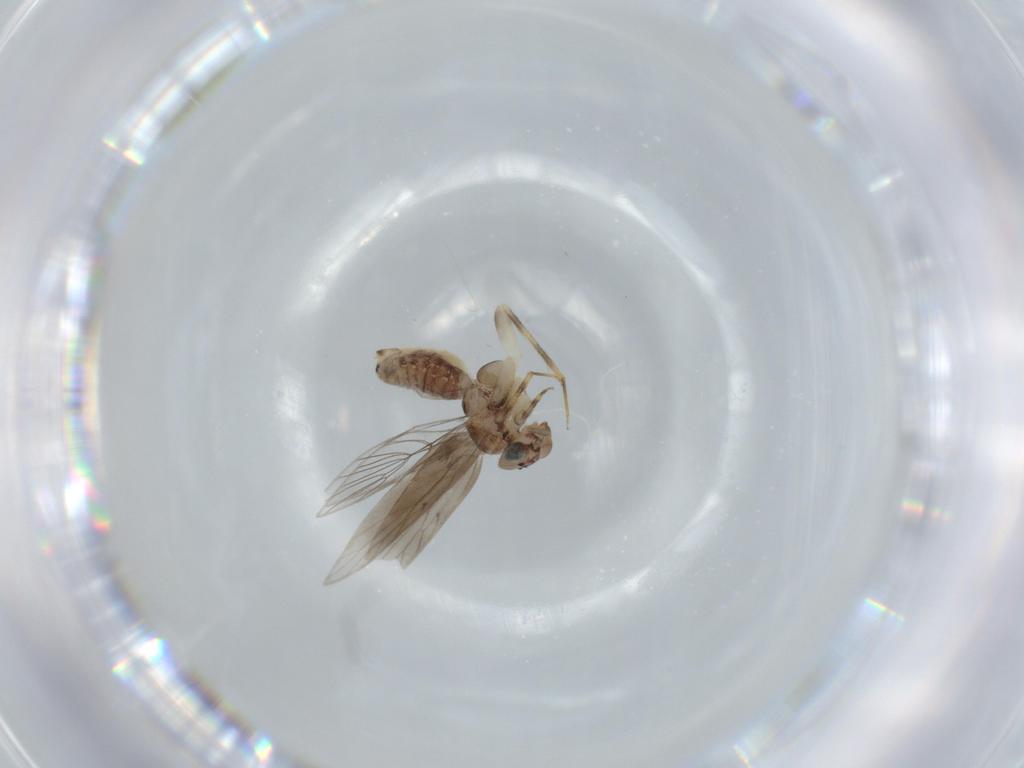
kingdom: Animalia
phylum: Arthropoda
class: Insecta
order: Psocodea
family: Lepidopsocidae
